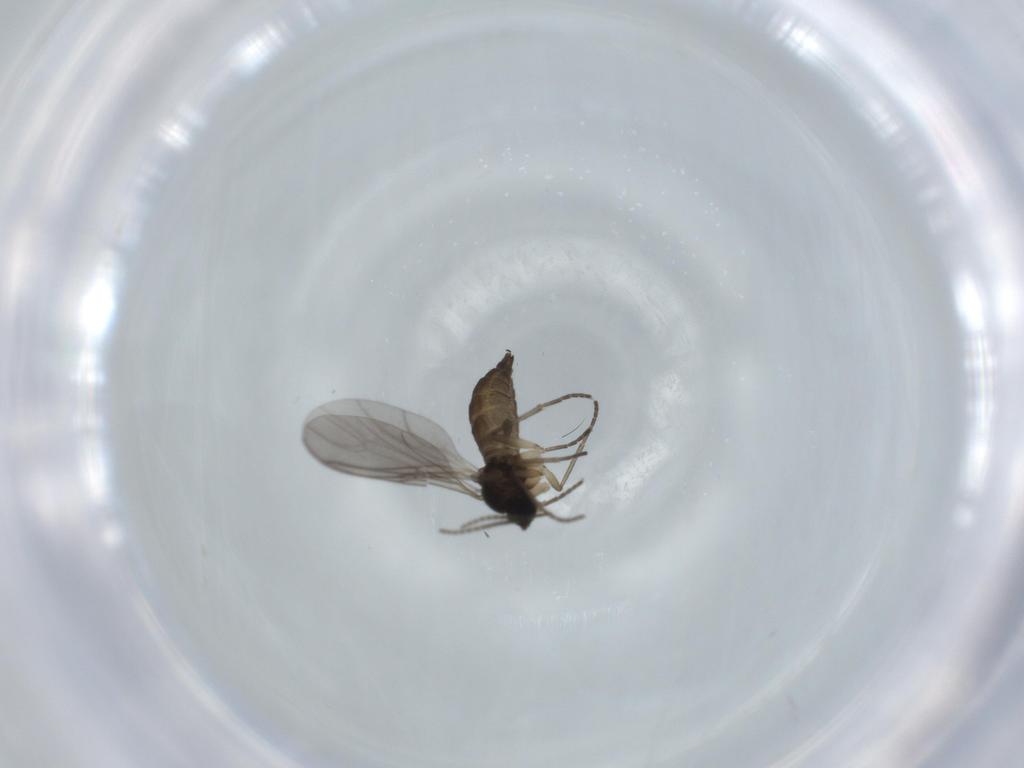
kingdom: Animalia
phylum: Arthropoda
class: Insecta
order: Diptera
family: Sciaridae
